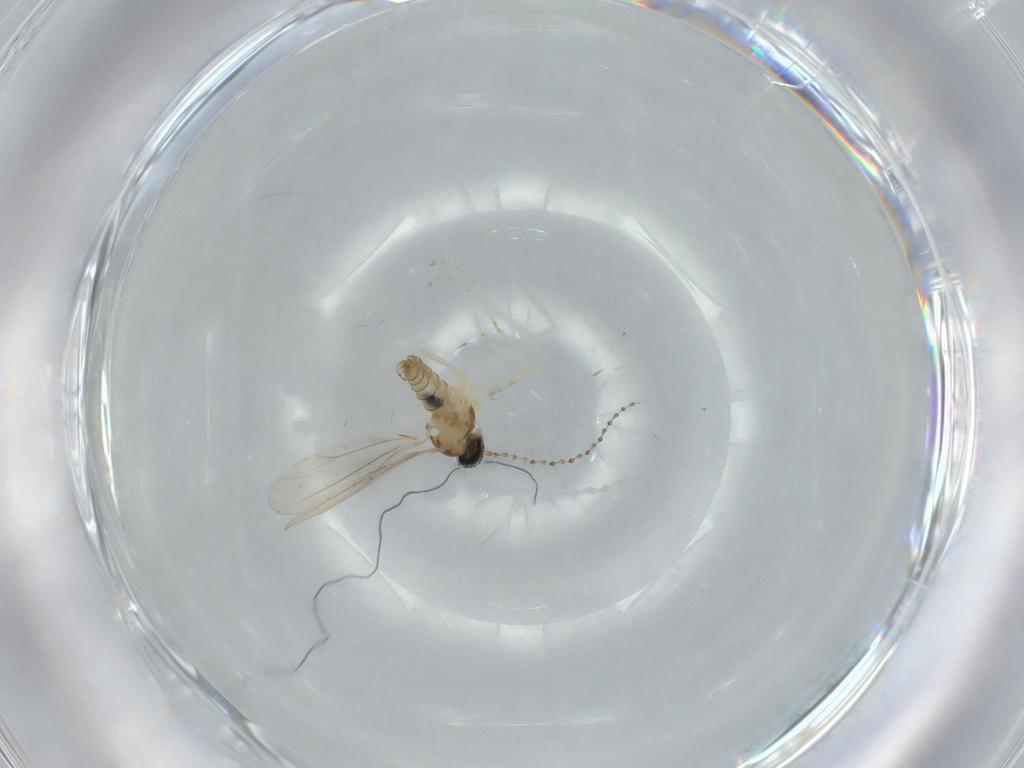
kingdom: Animalia
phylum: Arthropoda
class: Insecta
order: Diptera
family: Cecidomyiidae
